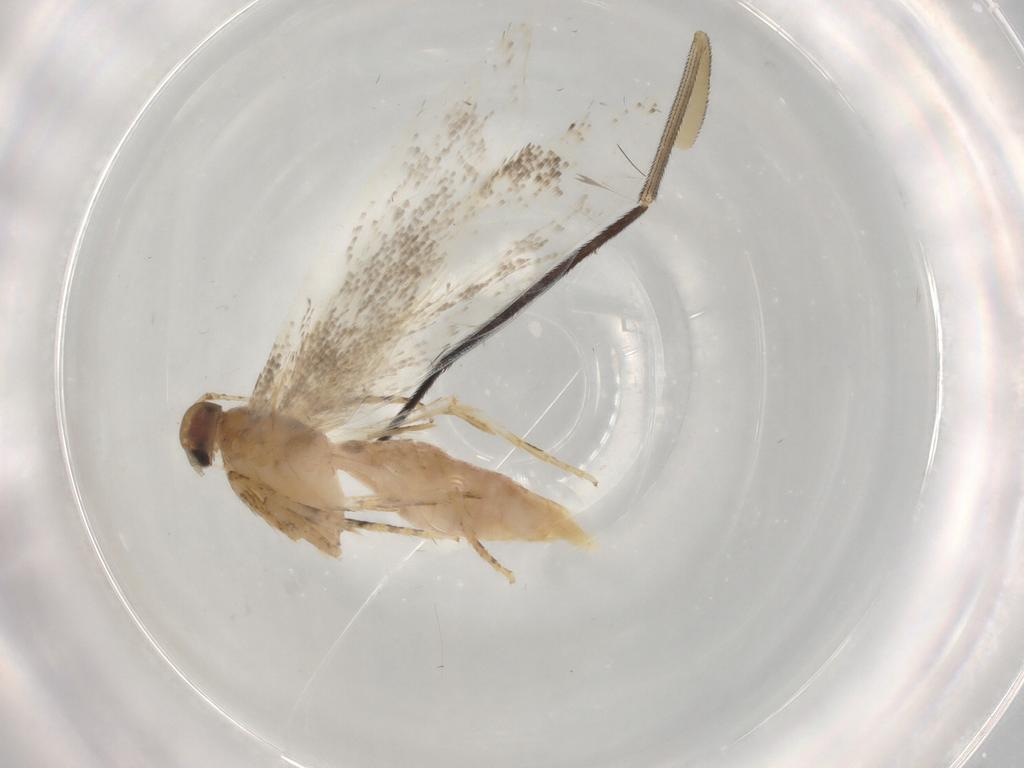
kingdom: Animalia
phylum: Arthropoda
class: Insecta
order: Lepidoptera
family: Gelechiidae
